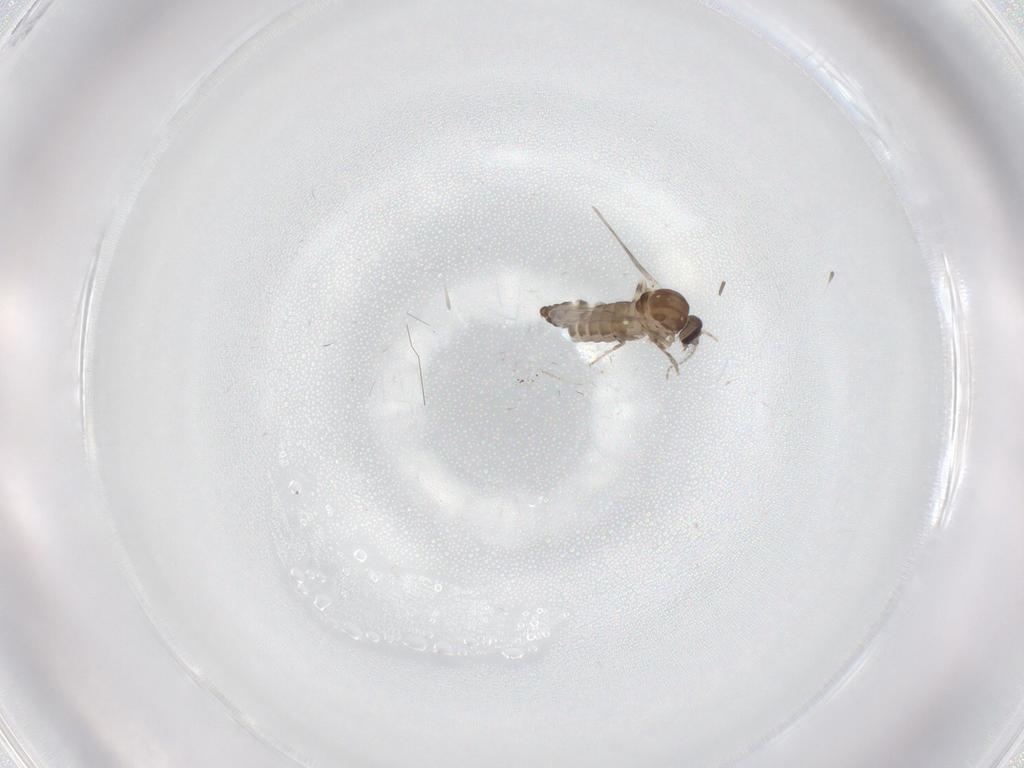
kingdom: Animalia
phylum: Arthropoda
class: Insecta
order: Diptera
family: Ceratopogonidae
